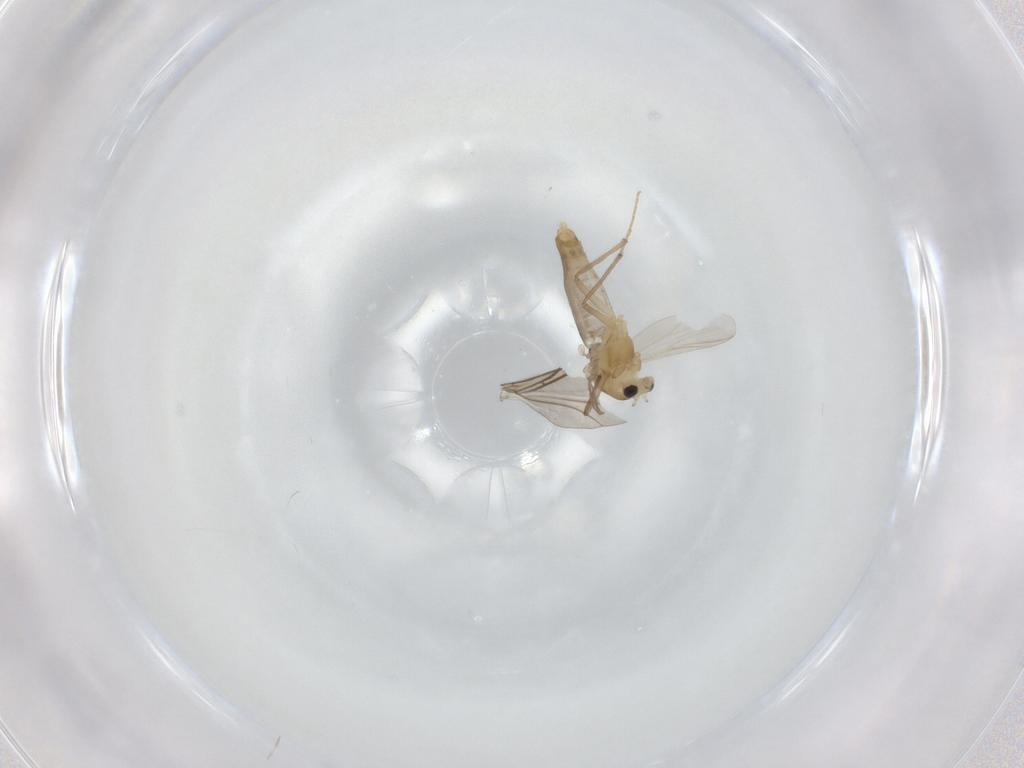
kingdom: Animalia
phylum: Arthropoda
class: Insecta
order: Diptera
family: Chironomidae
